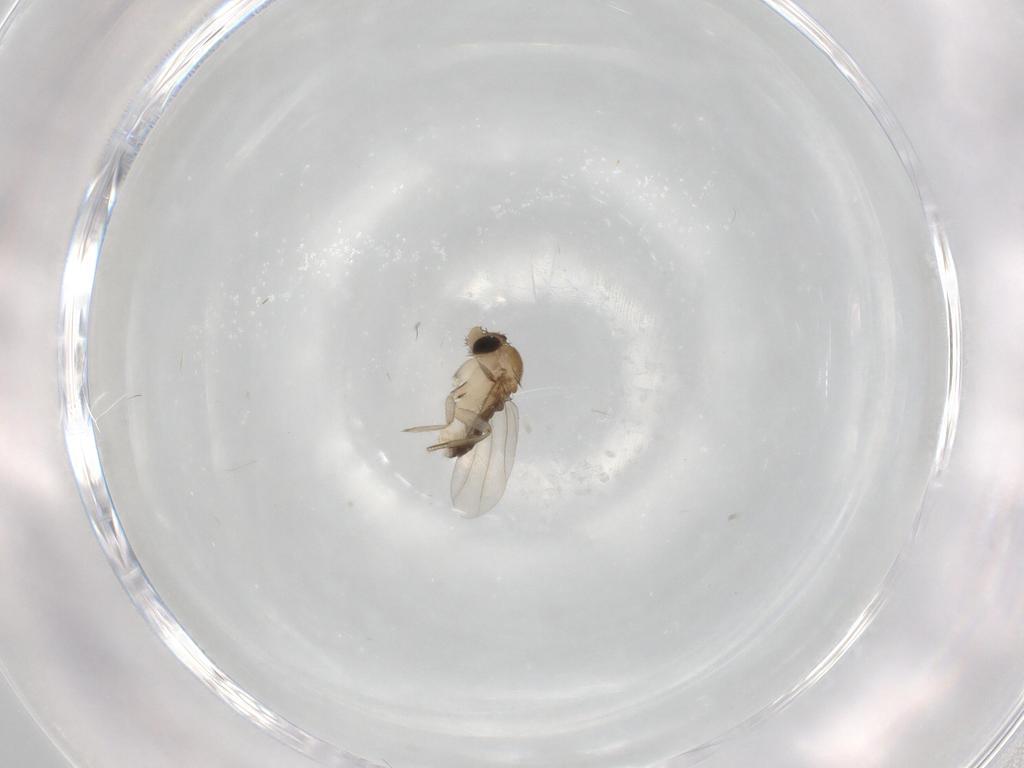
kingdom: Animalia
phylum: Arthropoda
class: Insecta
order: Diptera
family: Phoridae
